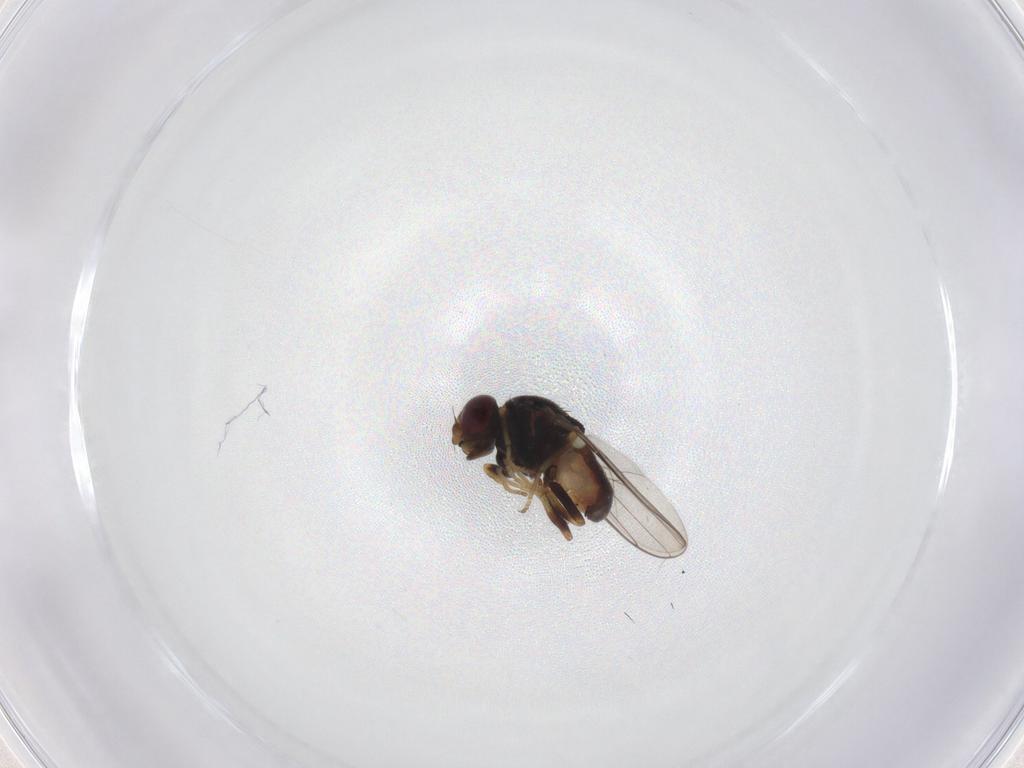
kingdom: Animalia
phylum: Arthropoda
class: Insecta
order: Diptera
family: Chloropidae
